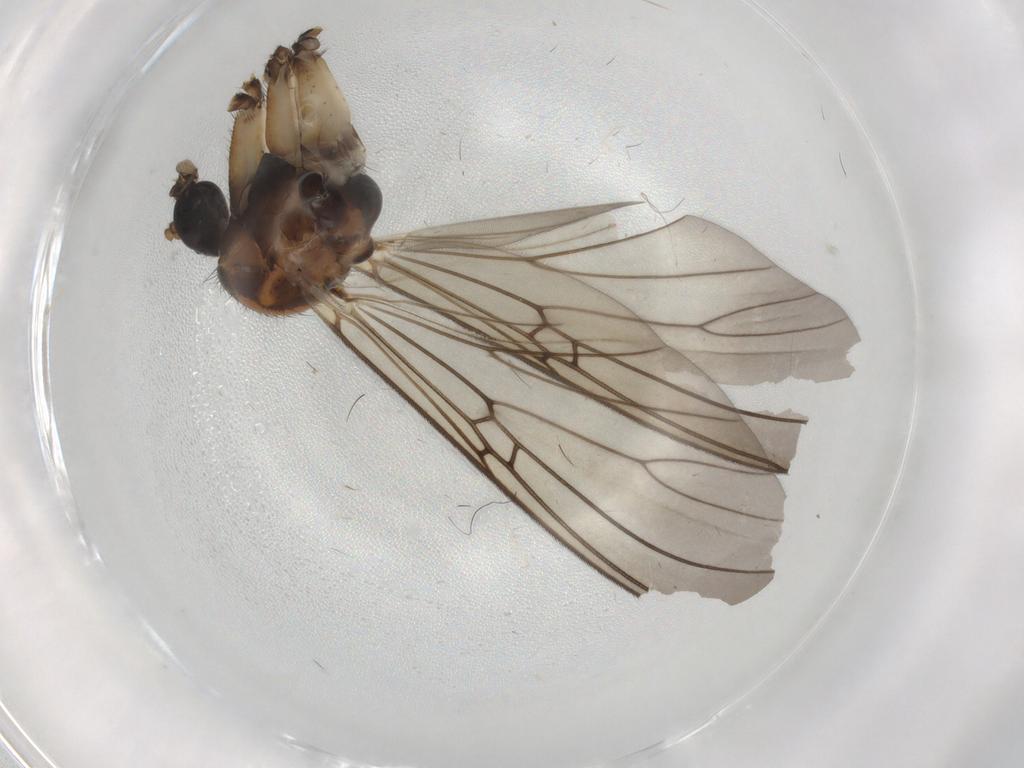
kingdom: Animalia
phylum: Arthropoda
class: Insecta
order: Diptera
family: Mycetophilidae
